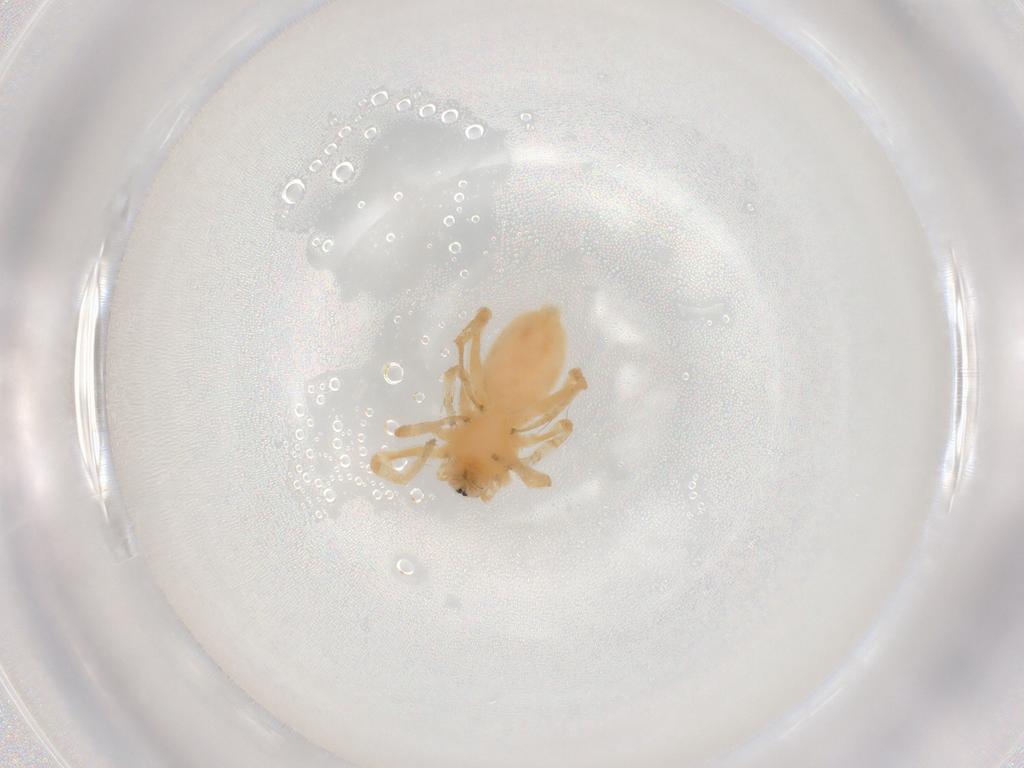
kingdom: Animalia
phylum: Arthropoda
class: Arachnida
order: Araneae
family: Anyphaenidae
